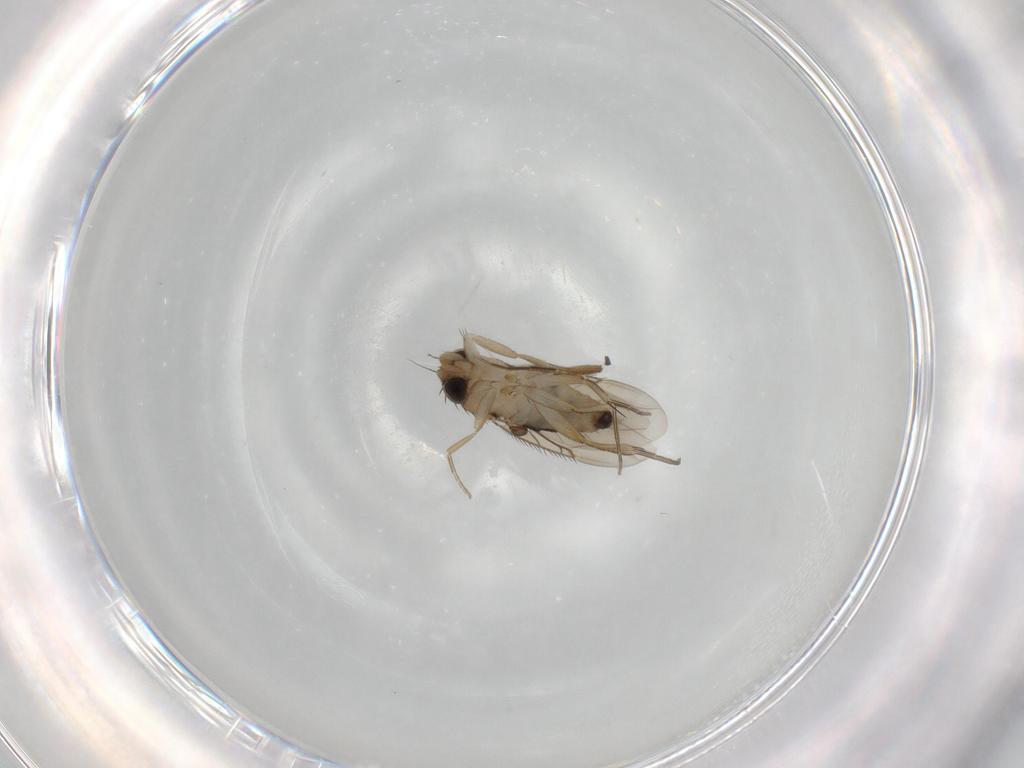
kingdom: Animalia
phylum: Arthropoda
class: Insecta
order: Diptera
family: Phoridae
